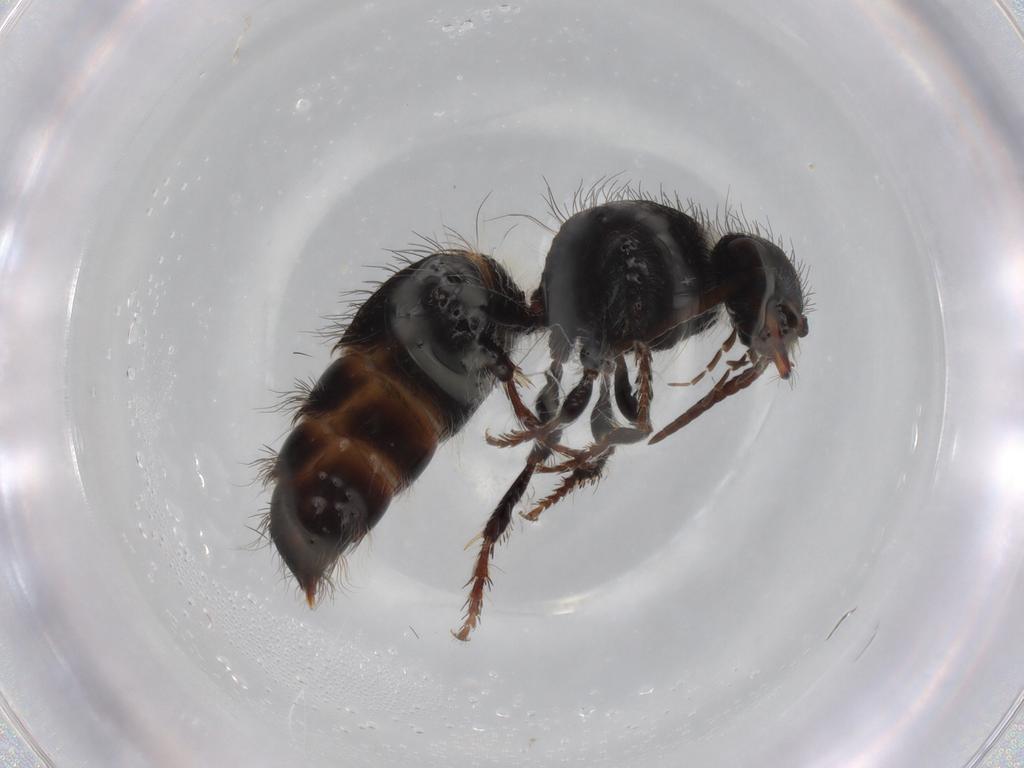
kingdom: Animalia
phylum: Arthropoda
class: Insecta
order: Hymenoptera
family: Mutillidae
